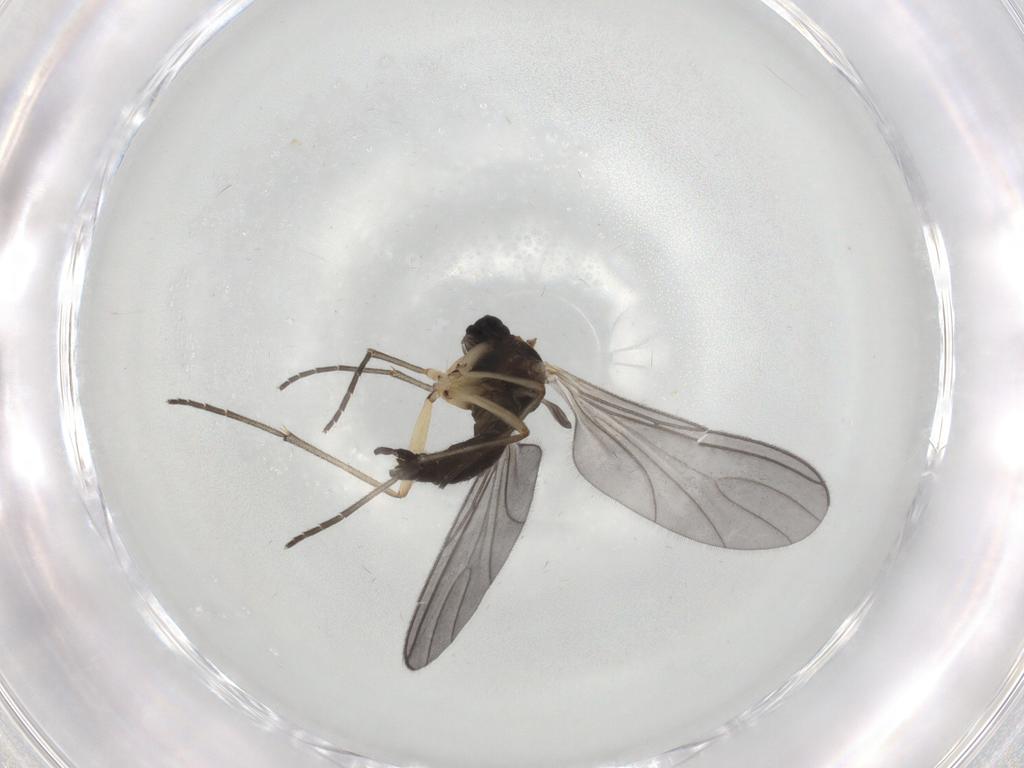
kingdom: Animalia
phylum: Arthropoda
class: Insecta
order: Diptera
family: Sciaridae
